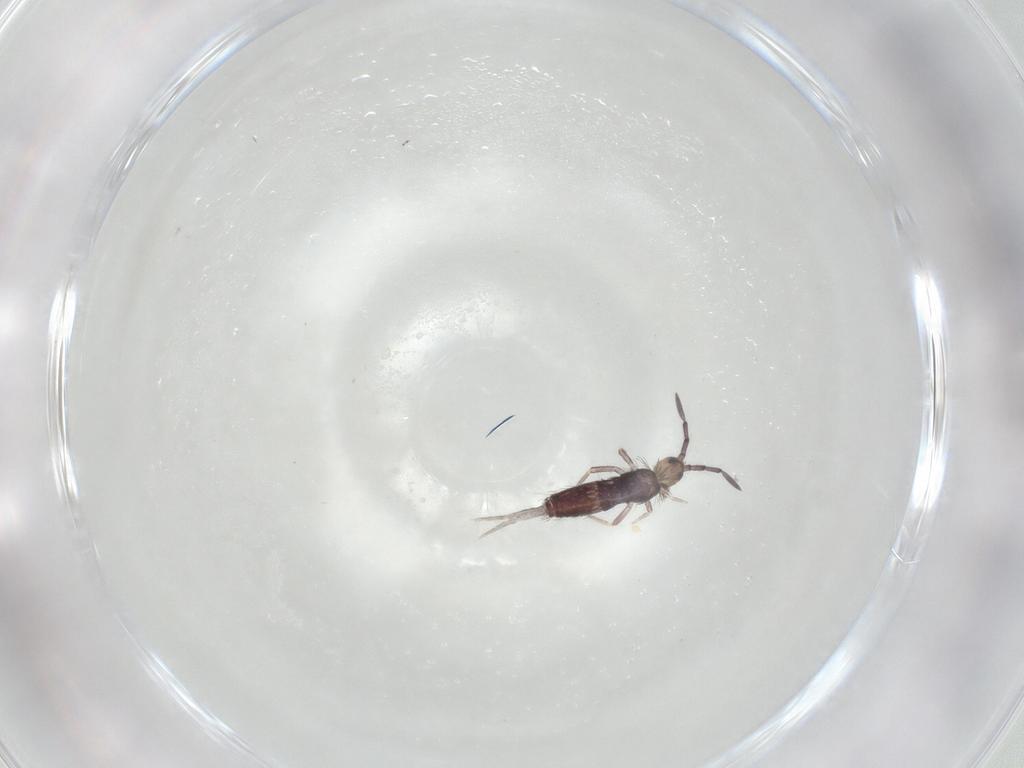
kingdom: Animalia
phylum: Arthropoda
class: Collembola
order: Entomobryomorpha
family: Entomobryidae
